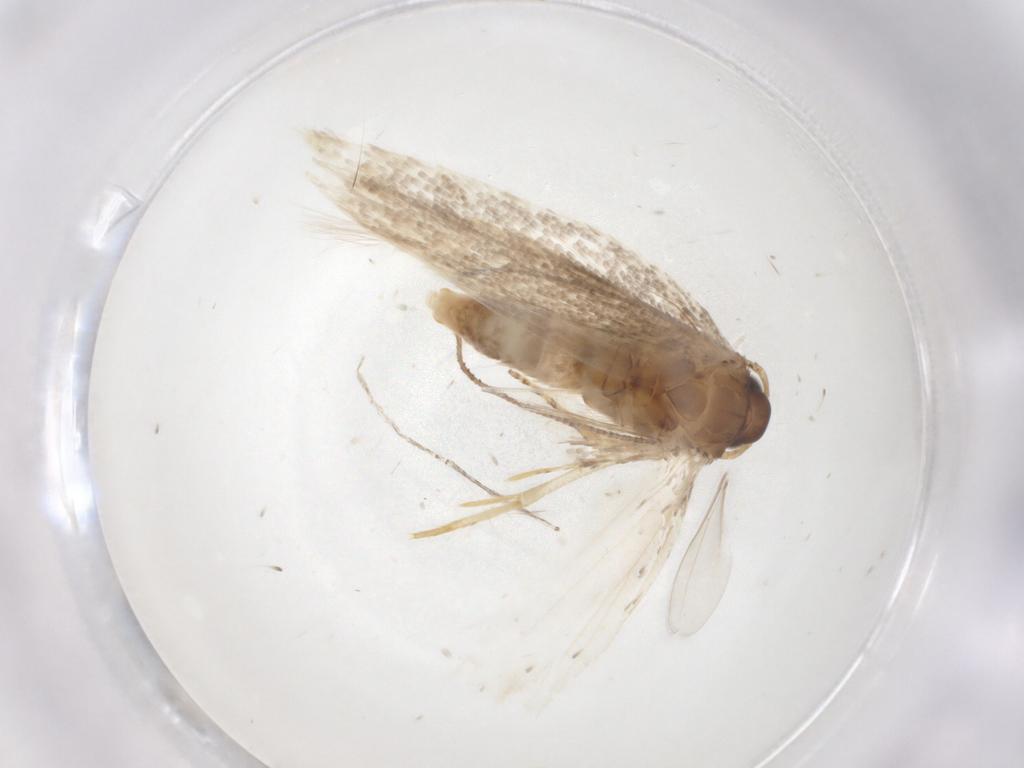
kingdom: Animalia
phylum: Arthropoda
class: Insecta
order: Lepidoptera
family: Gelechiidae
